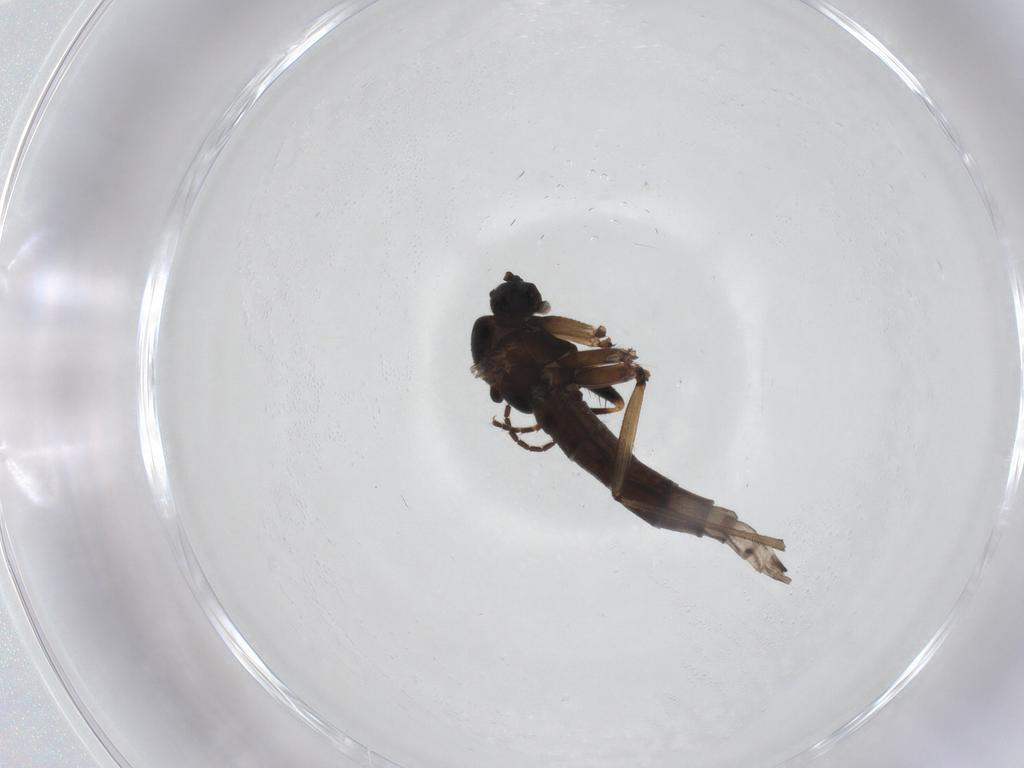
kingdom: Animalia
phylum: Arthropoda
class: Insecta
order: Diptera
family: Sciaridae
